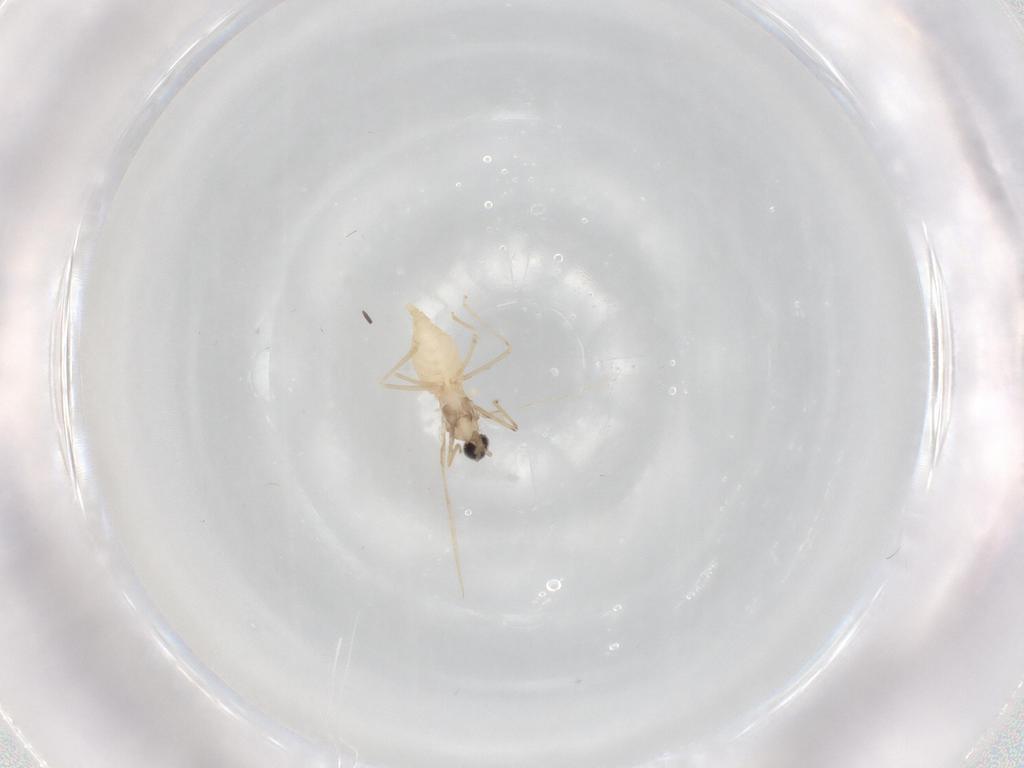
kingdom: Animalia
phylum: Arthropoda
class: Insecta
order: Diptera
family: Cecidomyiidae
